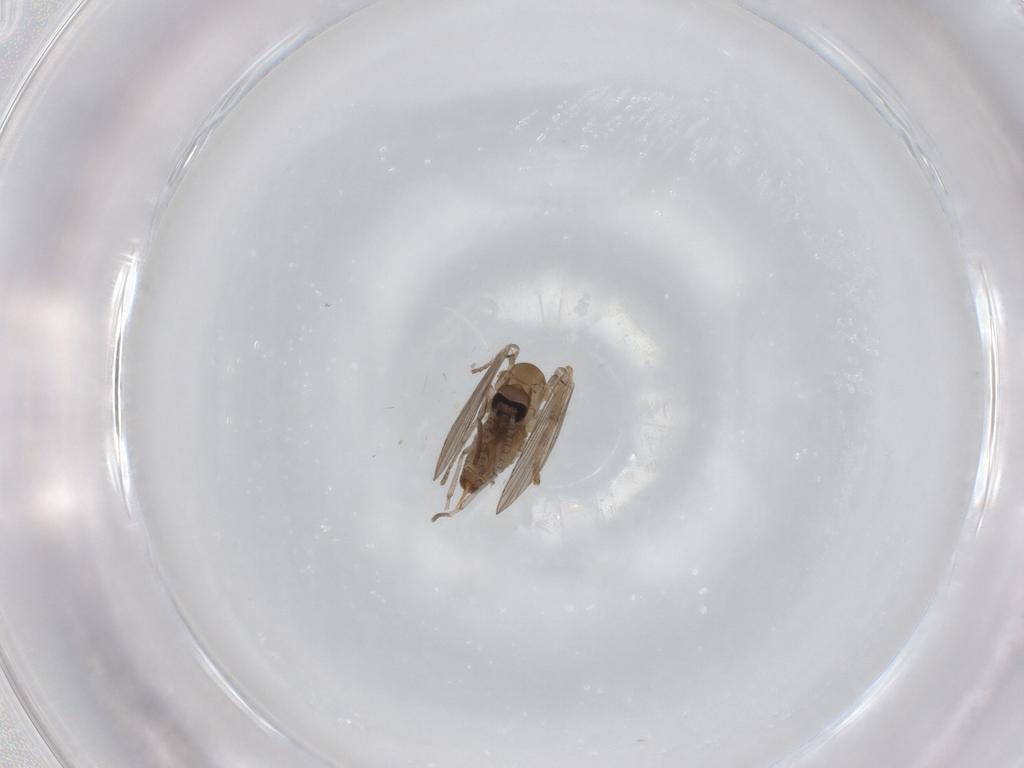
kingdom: Animalia
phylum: Arthropoda
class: Insecta
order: Diptera
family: Psychodidae
